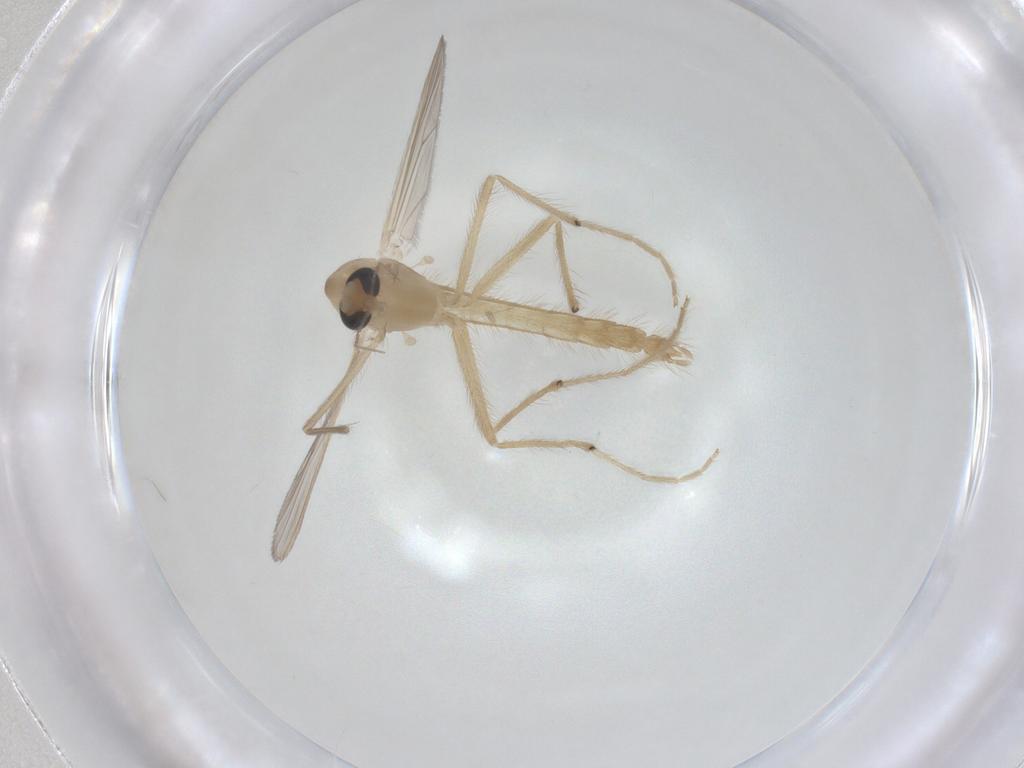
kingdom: Animalia
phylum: Arthropoda
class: Insecta
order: Diptera
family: Chironomidae
